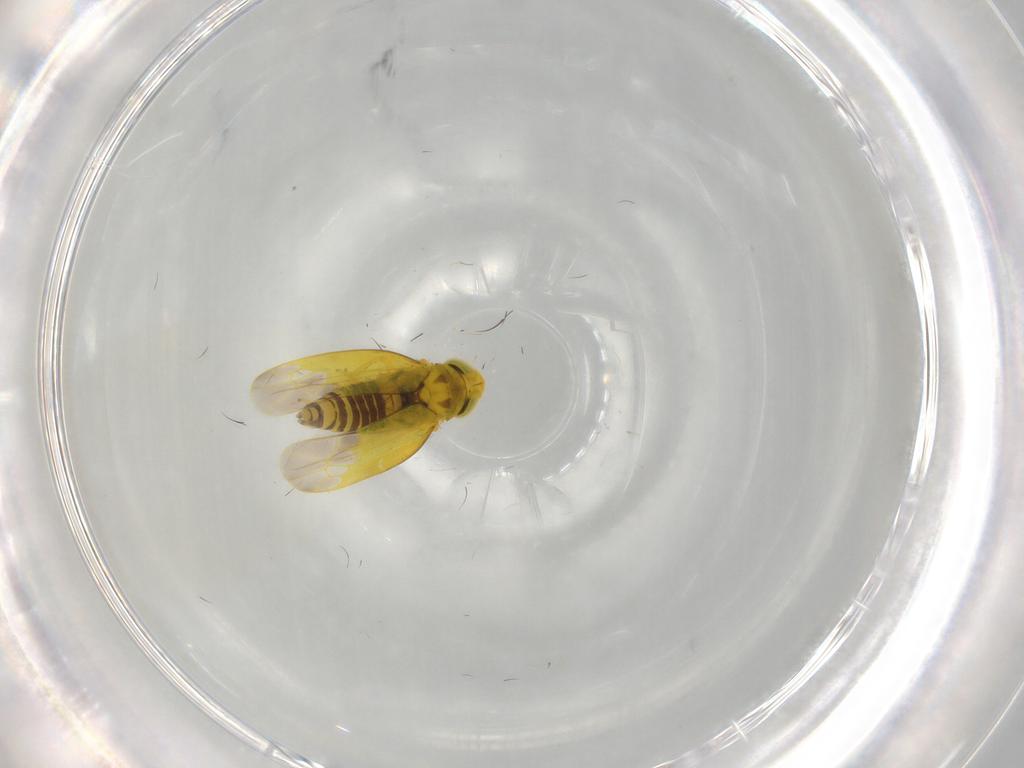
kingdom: Animalia
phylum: Arthropoda
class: Insecta
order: Hemiptera
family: Cicadellidae
